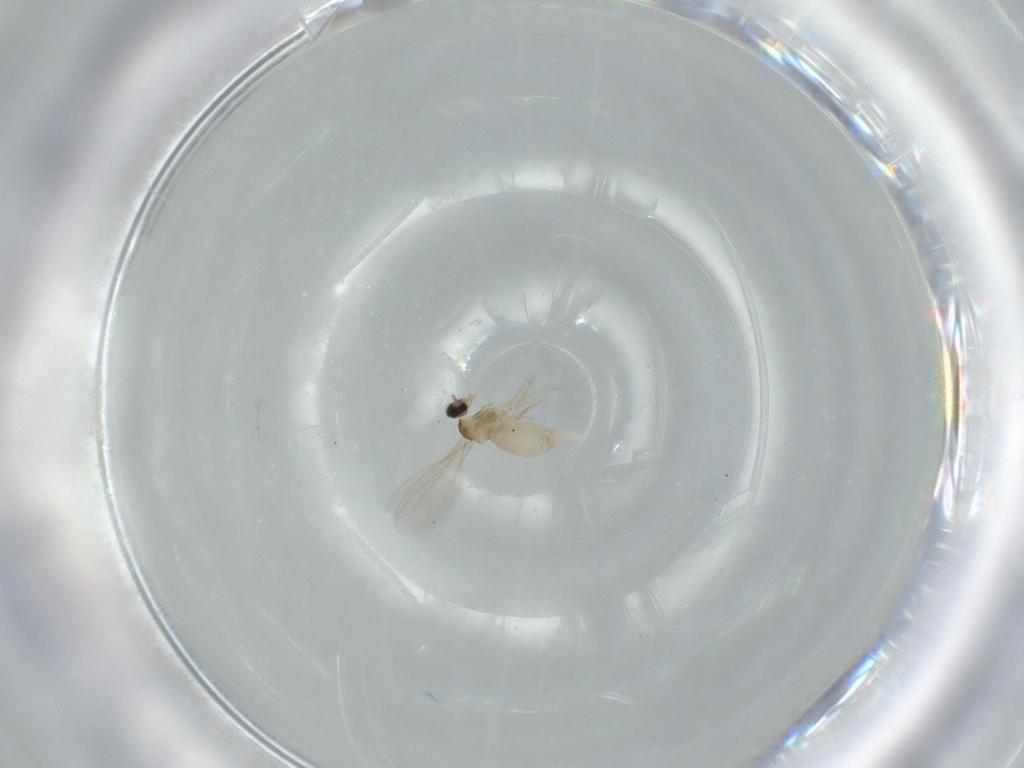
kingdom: Animalia
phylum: Arthropoda
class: Insecta
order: Diptera
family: Cecidomyiidae
